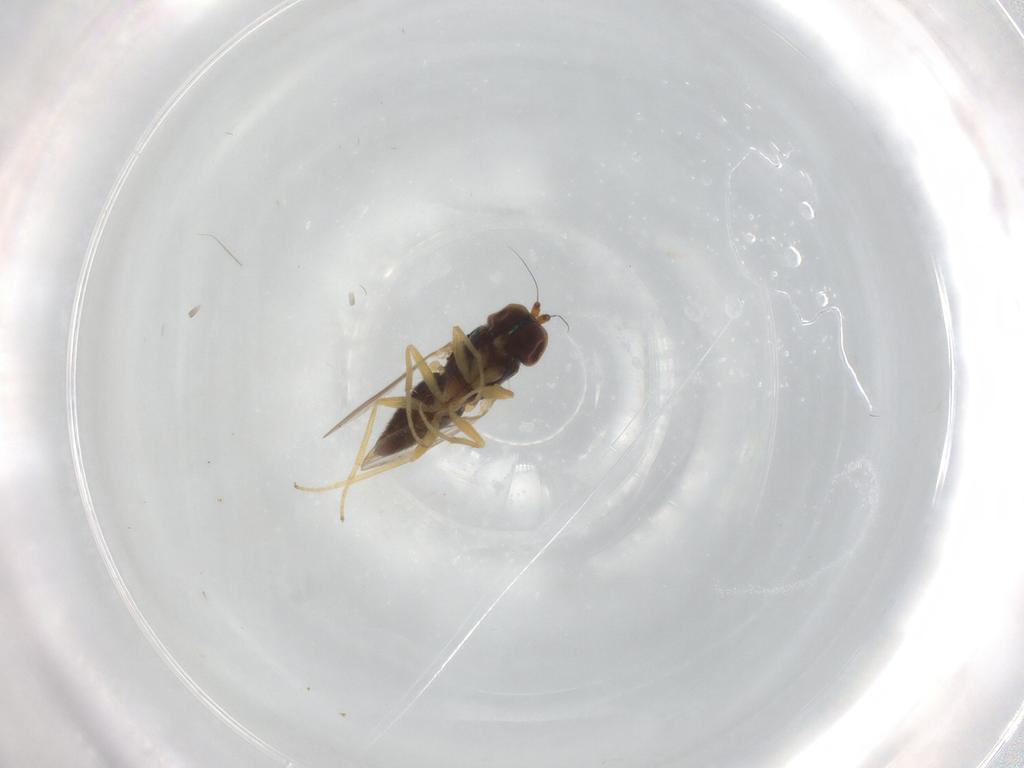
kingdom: Animalia
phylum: Arthropoda
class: Insecta
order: Diptera
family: Dolichopodidae
